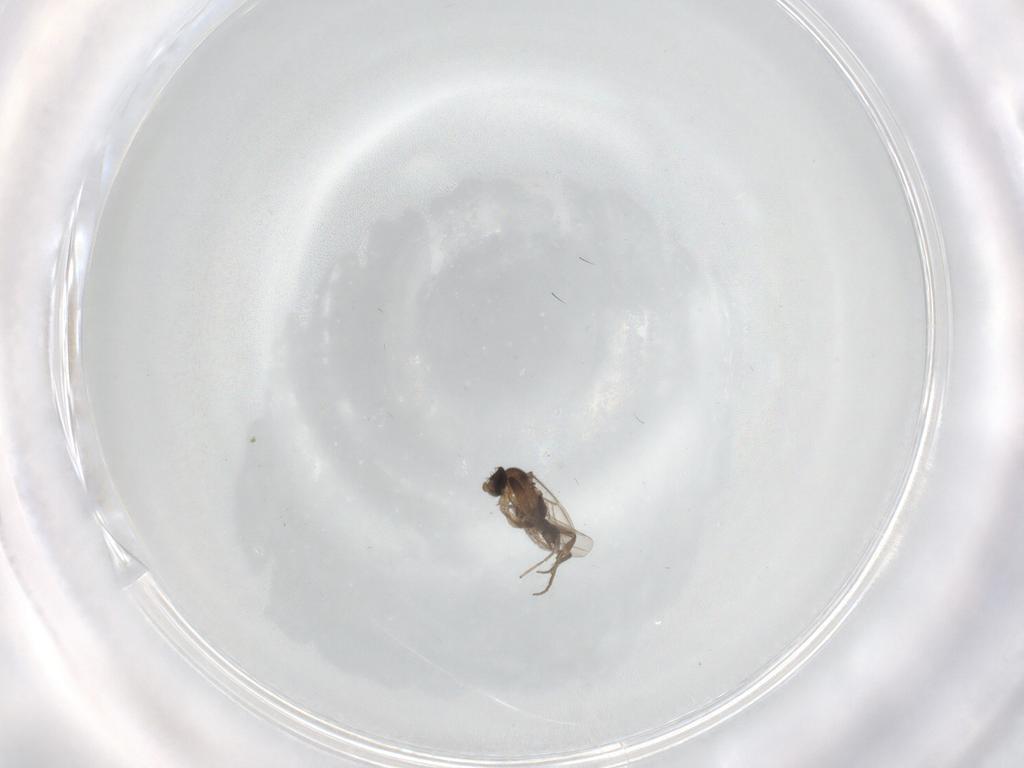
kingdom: Animalia
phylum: Arthropoda
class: Insecta
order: Diptera
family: Phoridae
